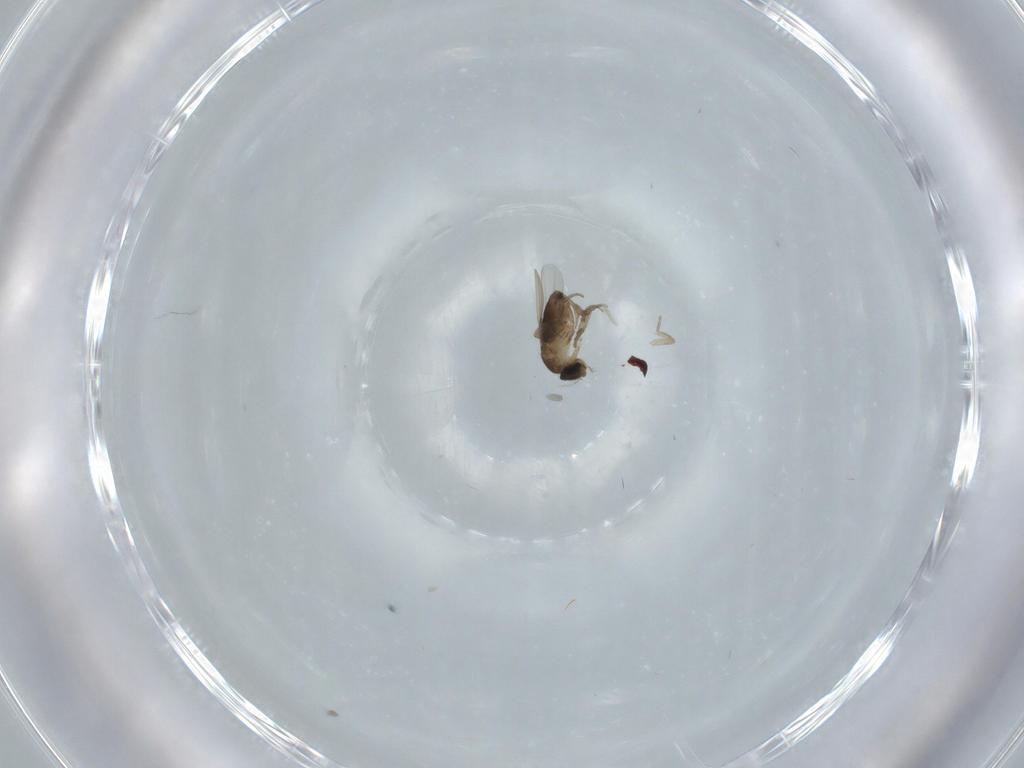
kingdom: Animalia
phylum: Arthropoda
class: Insecta
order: Diptera
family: Phoridae
